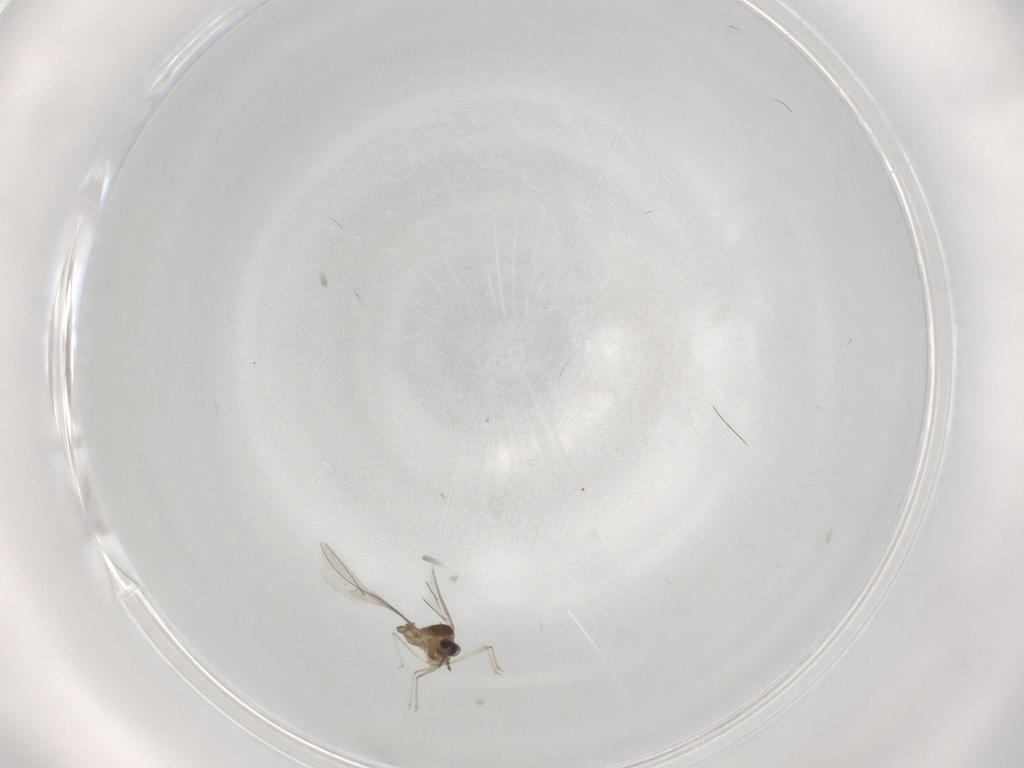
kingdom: Animalia
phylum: Arthropoda
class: Insecta
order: Diptera
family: Cecidomyiidae
